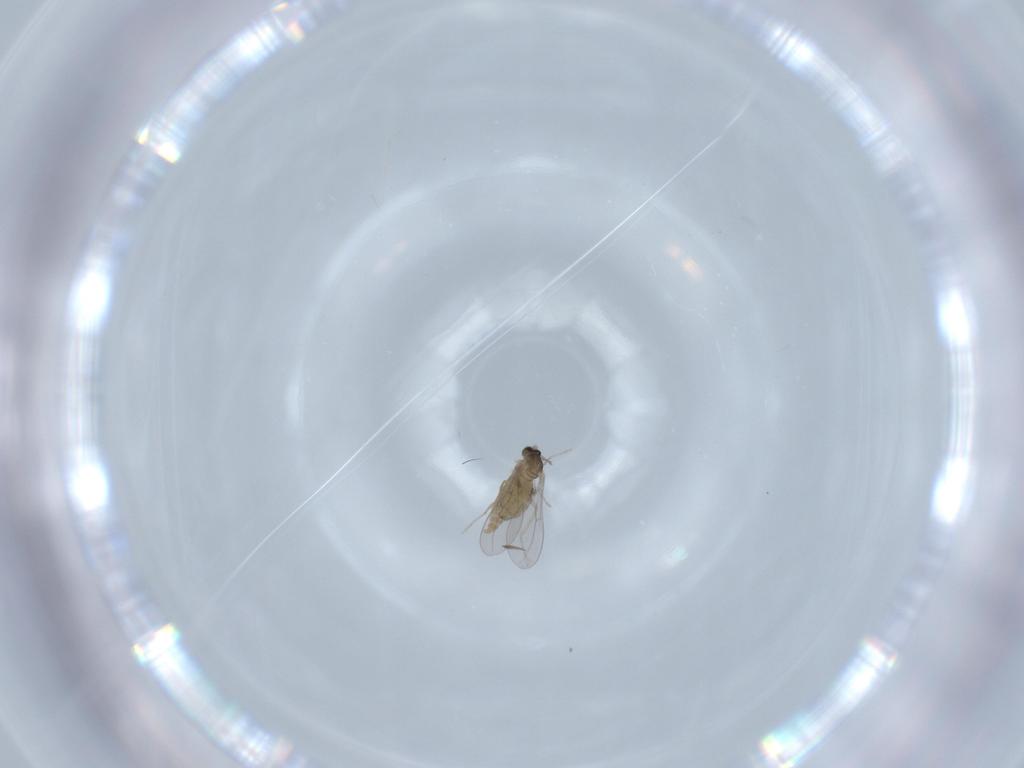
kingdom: Animalia
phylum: Arthropoda
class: Insecta
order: Diptera
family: Cecidomyiidae
